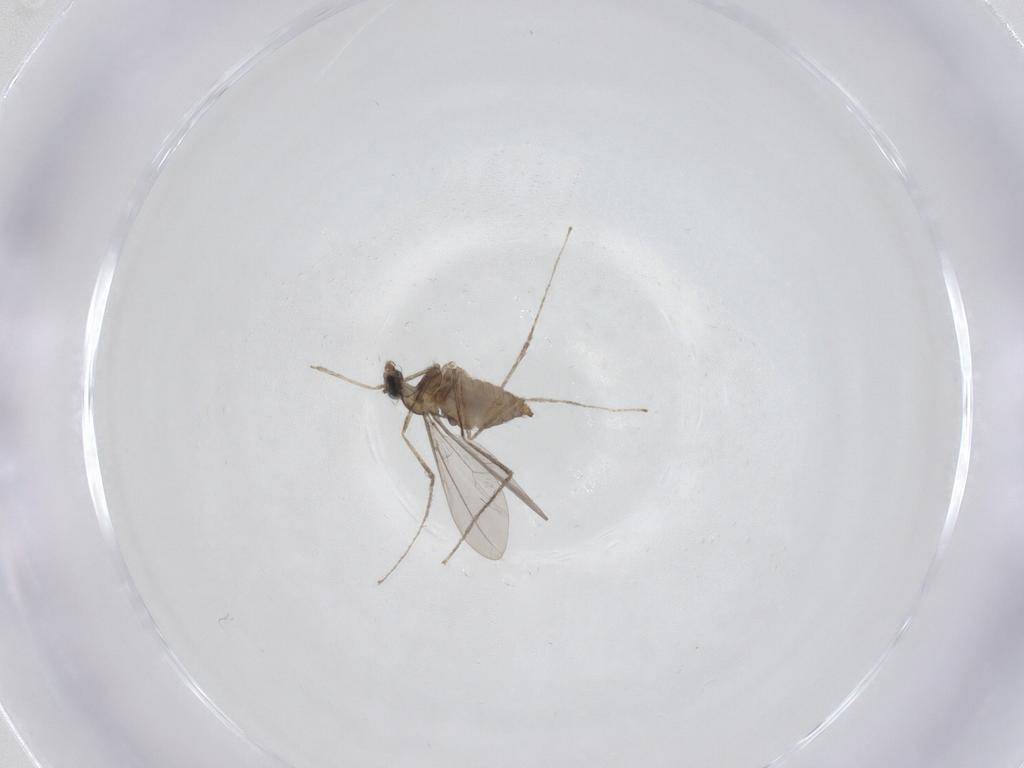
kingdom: Animalia
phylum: Arthropoda
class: Insecta
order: Diptera
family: Cecidomyiidae
